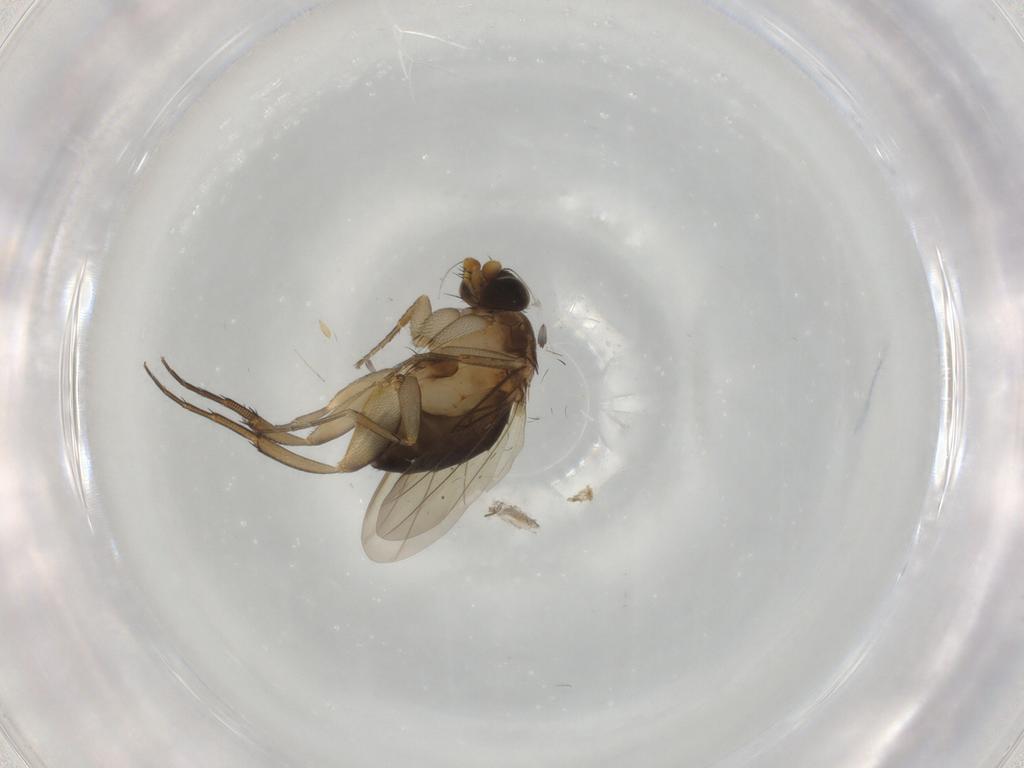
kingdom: Animalia
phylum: Arthropoda
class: Insecta
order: Diptera
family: Phoridae
